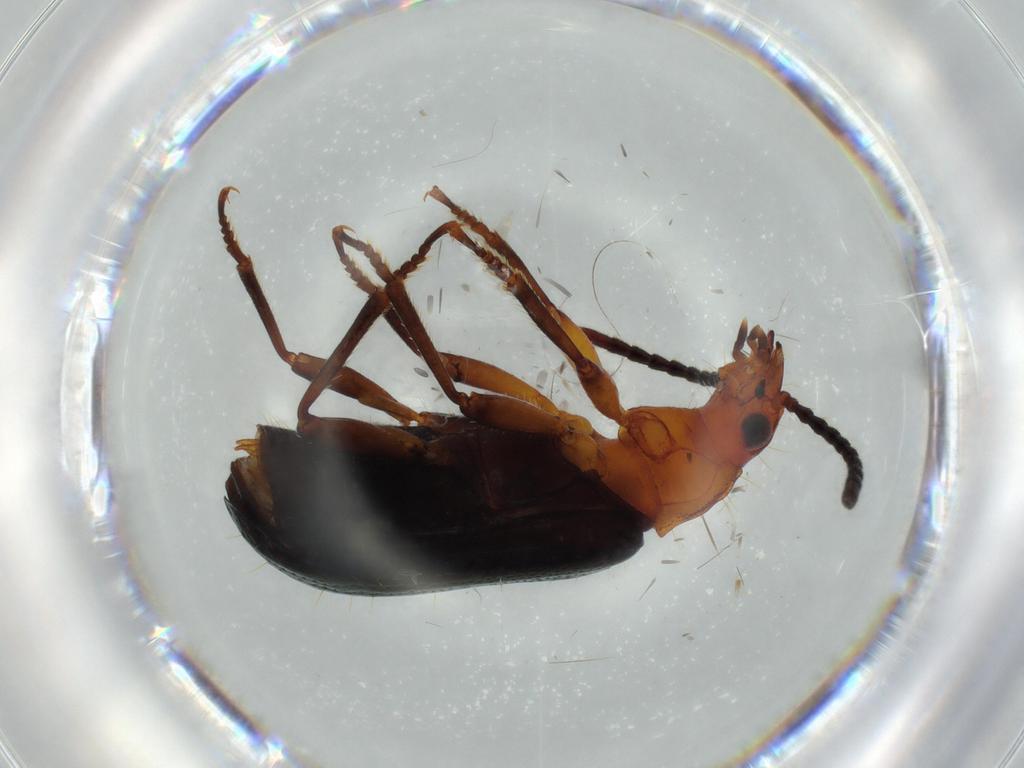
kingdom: Animalia
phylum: Arthropoda
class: Insecta
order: Coleoptera
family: Carabidae
